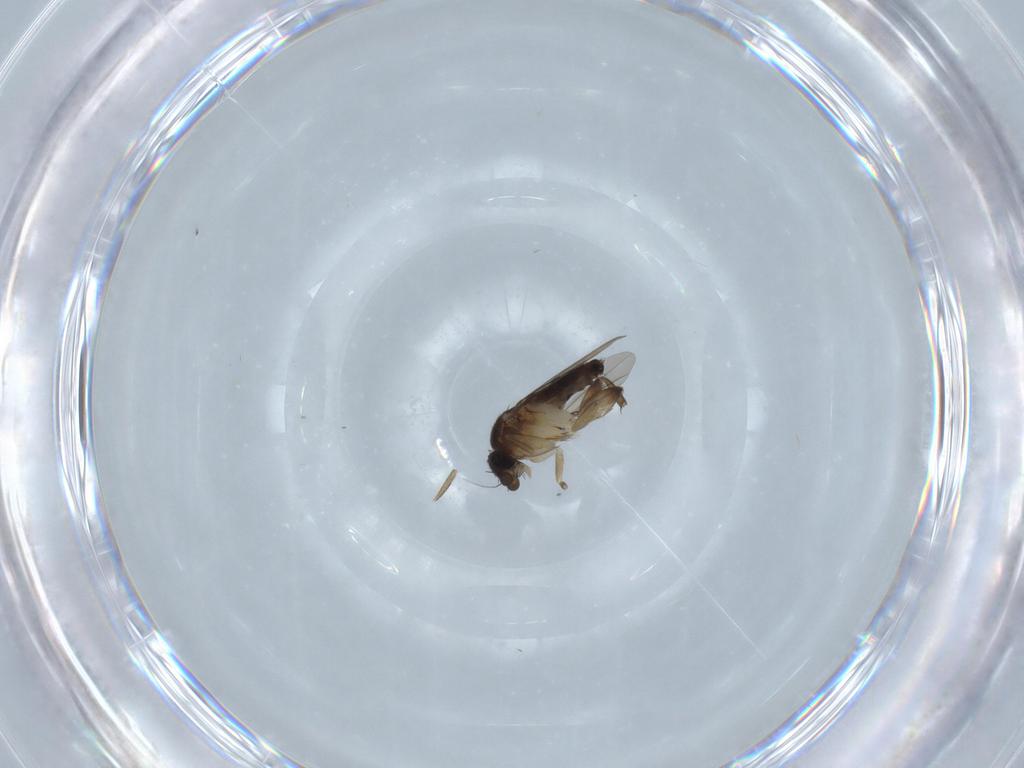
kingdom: Animalia
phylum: Arthropoda
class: Insecta
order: Diptera
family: Phoridae
